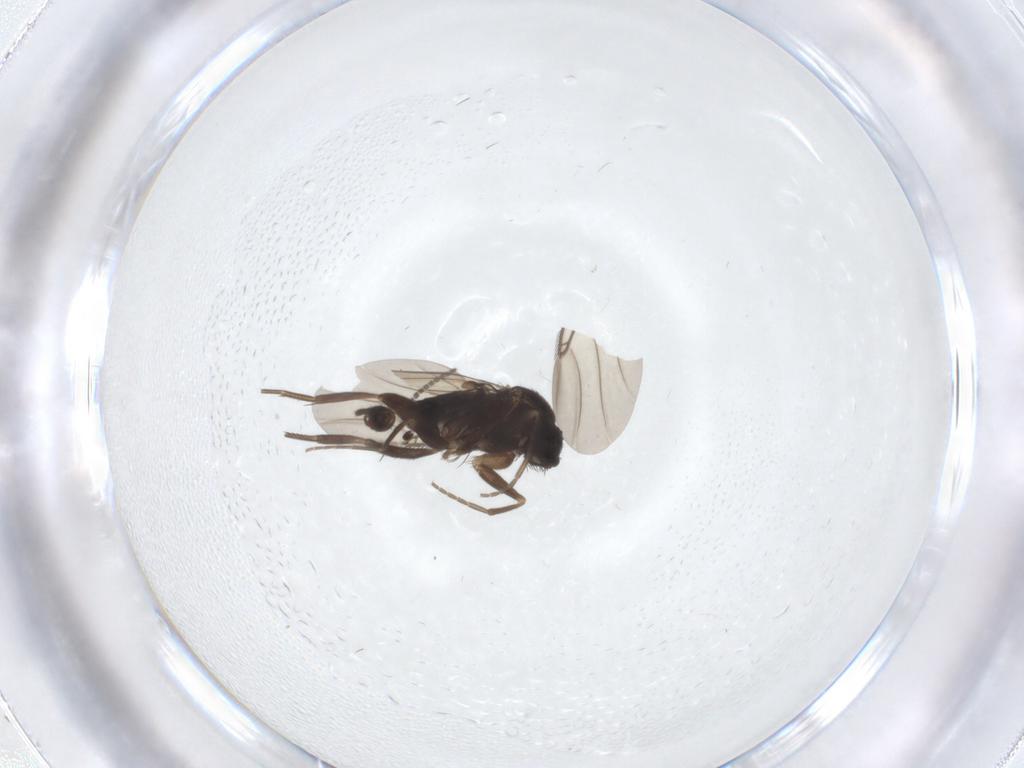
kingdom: Animalia
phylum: Arthropoda
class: Insecta
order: Diptera
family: Phoridae
